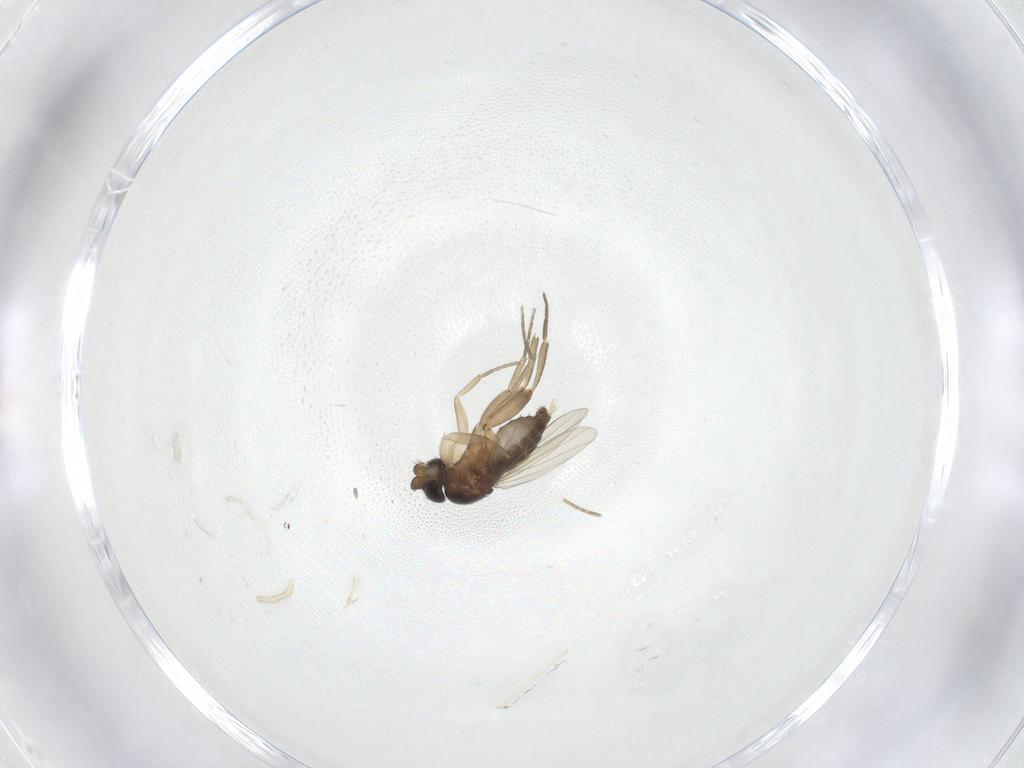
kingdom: Animalia
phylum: Arthropoda
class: Insecta
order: Diptera
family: Phoridae
